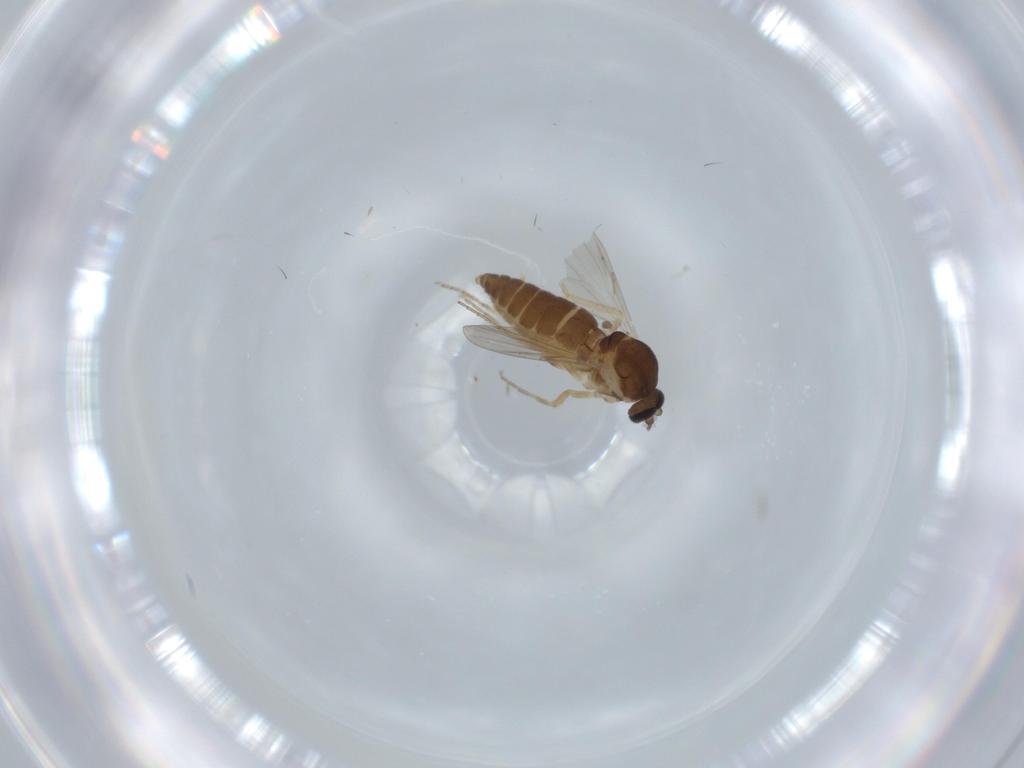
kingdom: Animalia
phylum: Arthropoda
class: Insecta
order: Diptera
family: Ceratopogonidae
